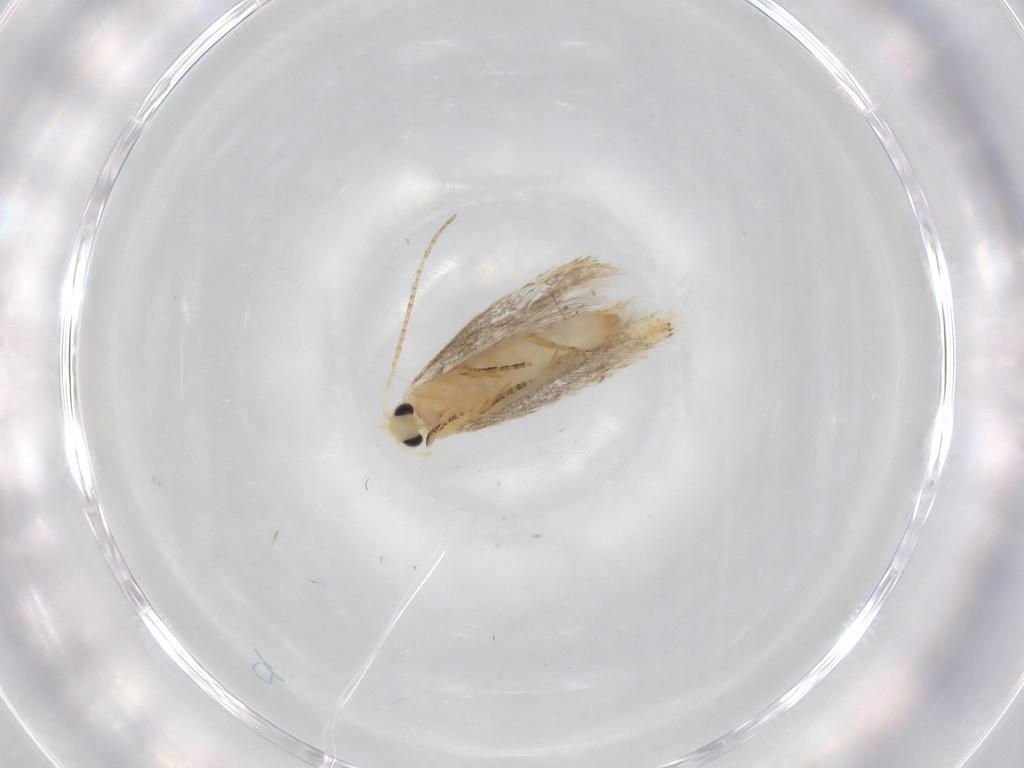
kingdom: Animalia
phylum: Arthropoda
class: Insecta
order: Lepidoptera
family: Bucculatricidae
